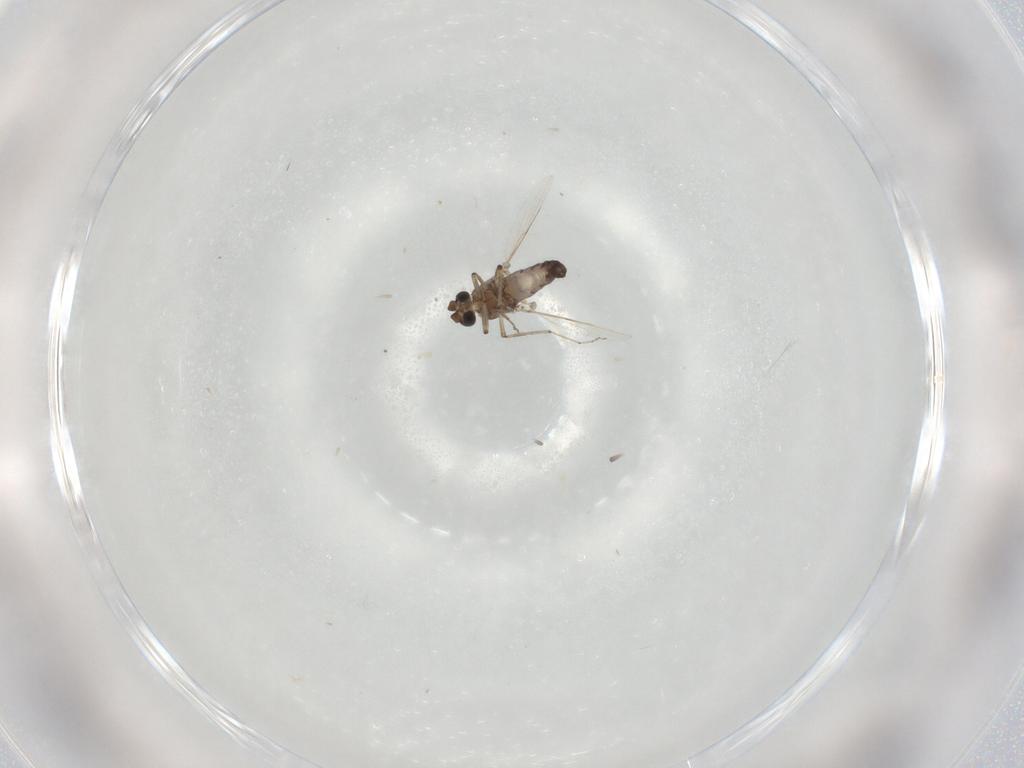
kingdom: Animalia
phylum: Arthropoda
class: Insecta
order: Diptera
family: Ceratopogonidae
